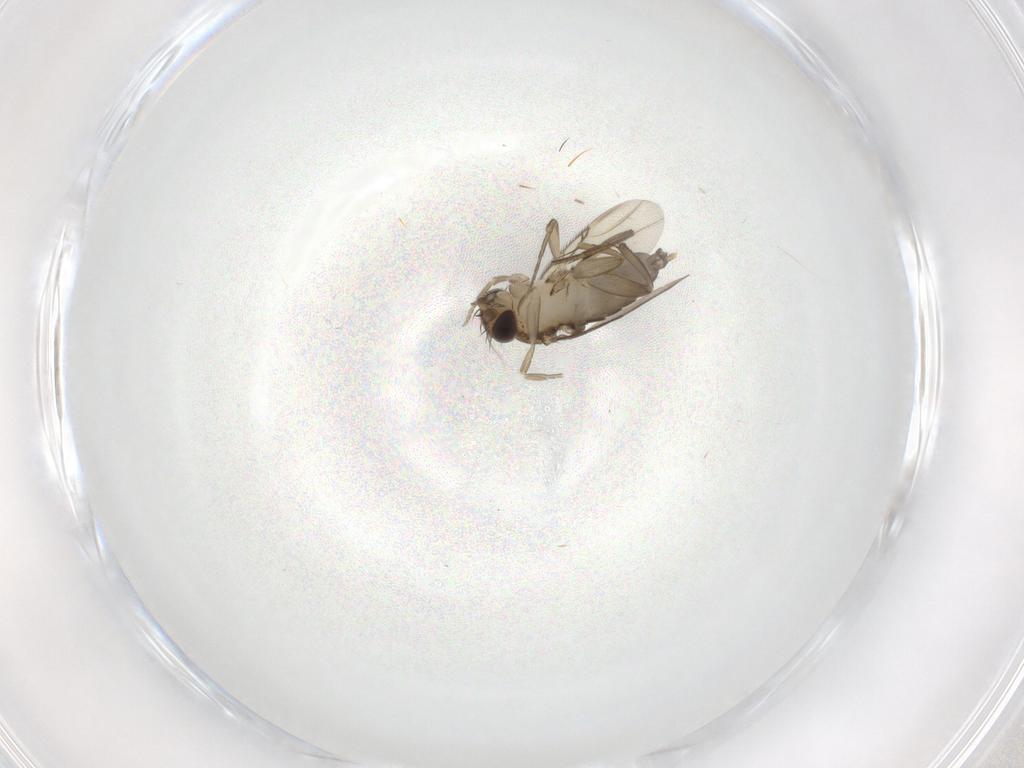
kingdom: Animalia
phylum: Arthropoda
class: Insecta
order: Diptera
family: Phoridae
